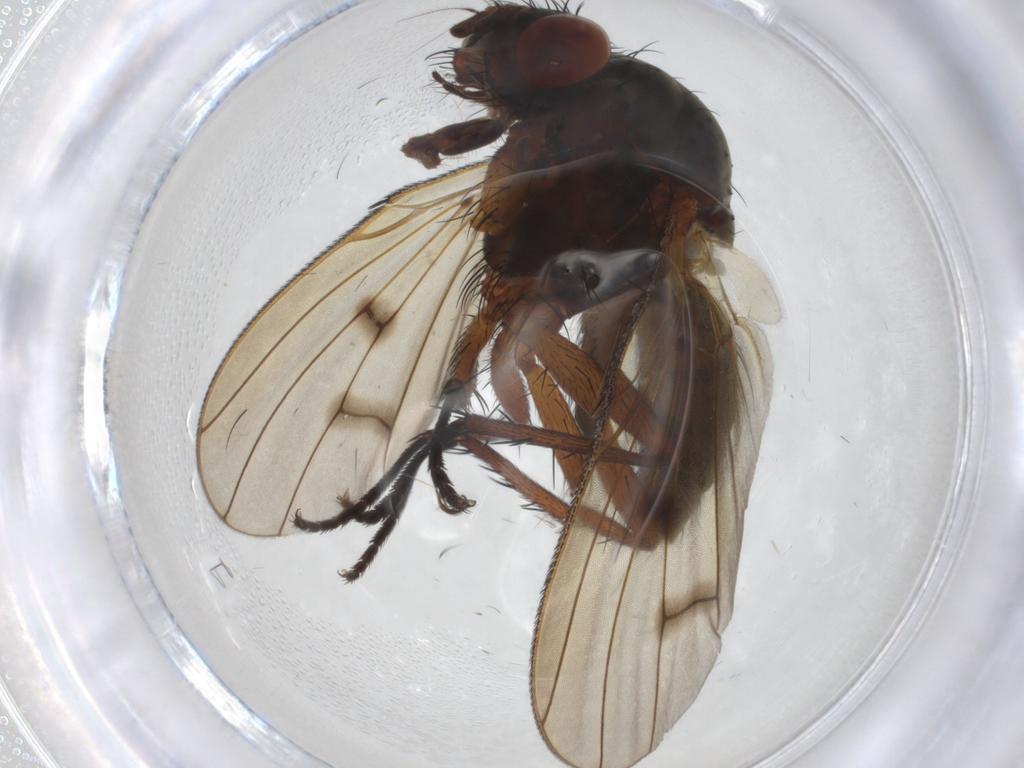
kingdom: Animalia
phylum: Arthropoda
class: Insecta
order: Diptera
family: Anthomyiidae
